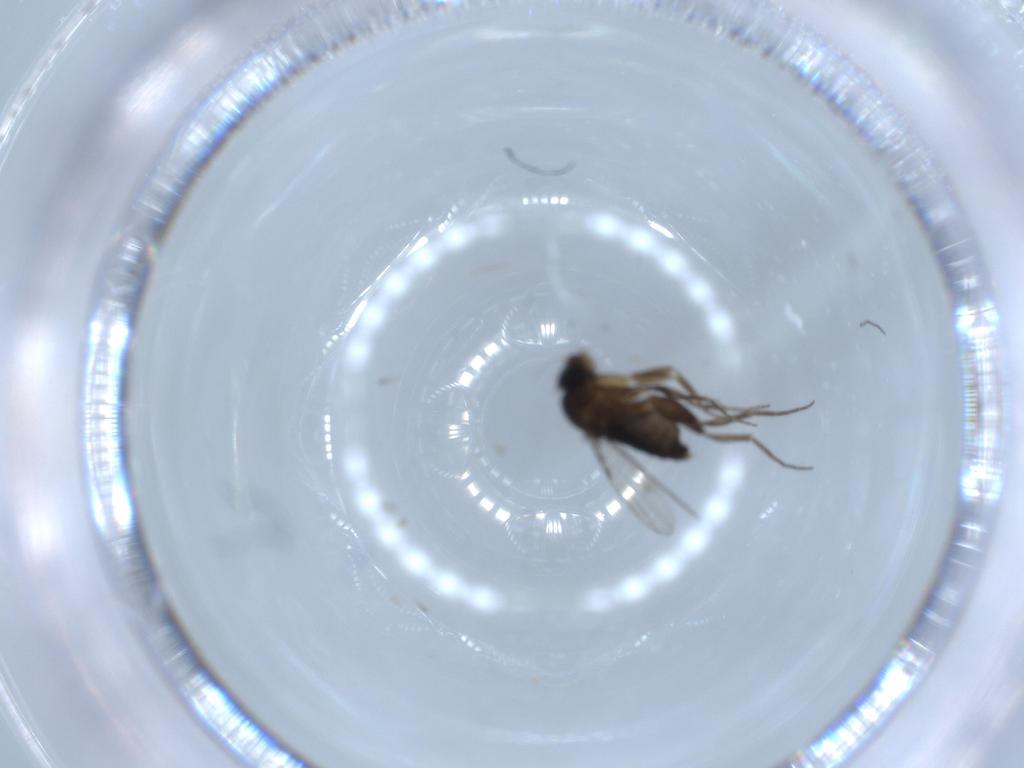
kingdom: Animalia
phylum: Arthropoda
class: Insecta
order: Diptera
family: Phoridae
